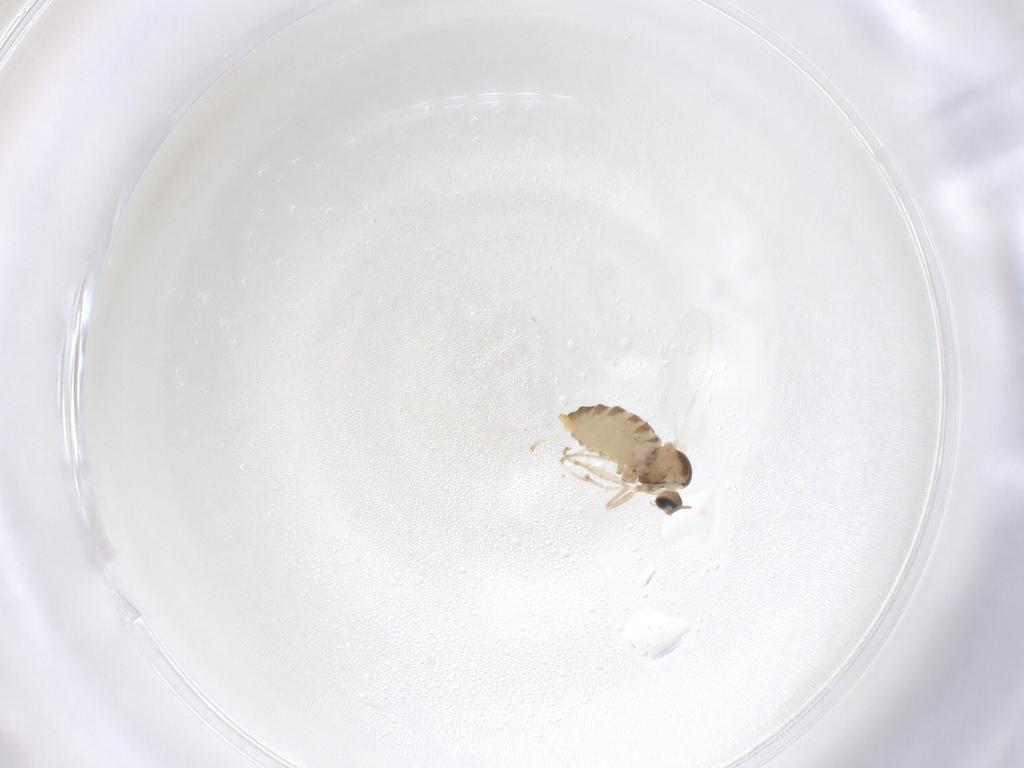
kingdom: Animalia
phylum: Arthropoda
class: Insecta
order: Diptera
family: Cecidomyiidae
